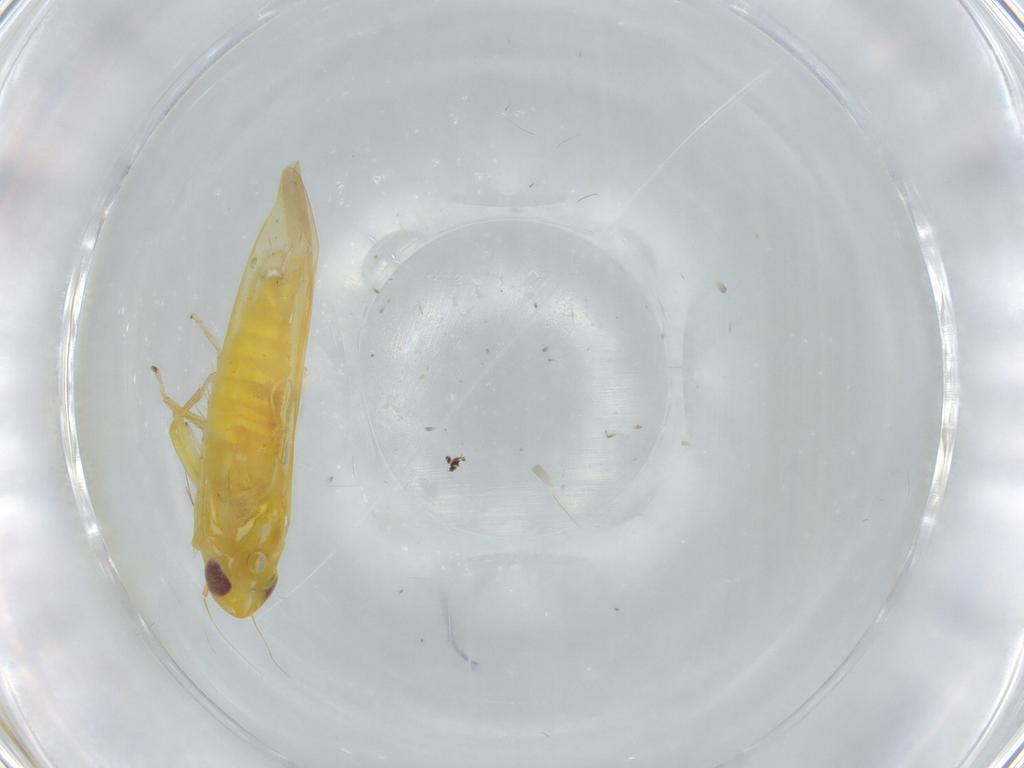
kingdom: Animalia
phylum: Arthropoda
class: Insecta
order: Hemiptera
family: Cicadellidae
